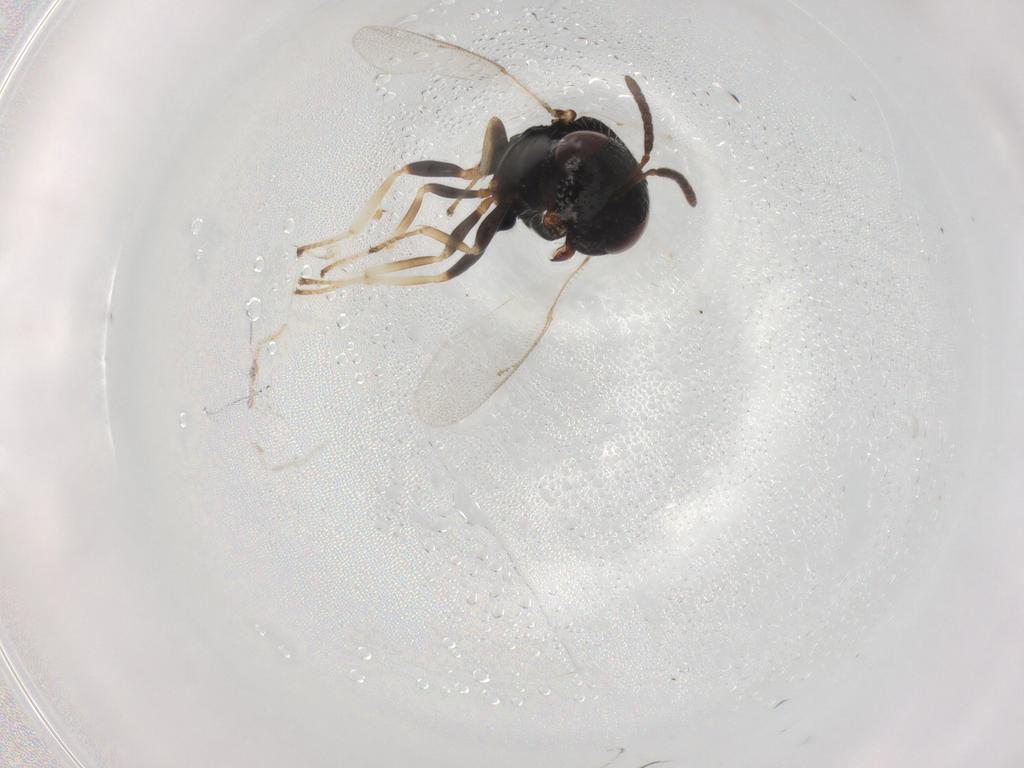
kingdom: Animalia
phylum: Arthropoda
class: Insecta
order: Hymenoptera
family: Pteromalidae
